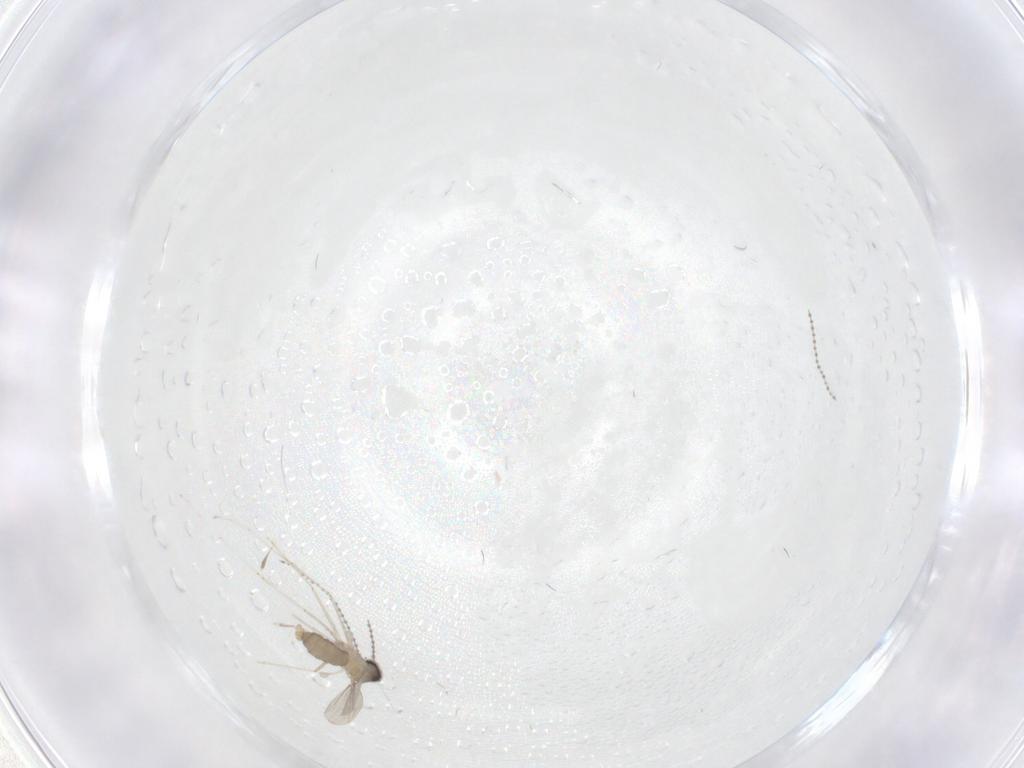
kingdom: Animalia
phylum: Arthropoda
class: Insecta
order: Diptera
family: Cecidomyiidae
